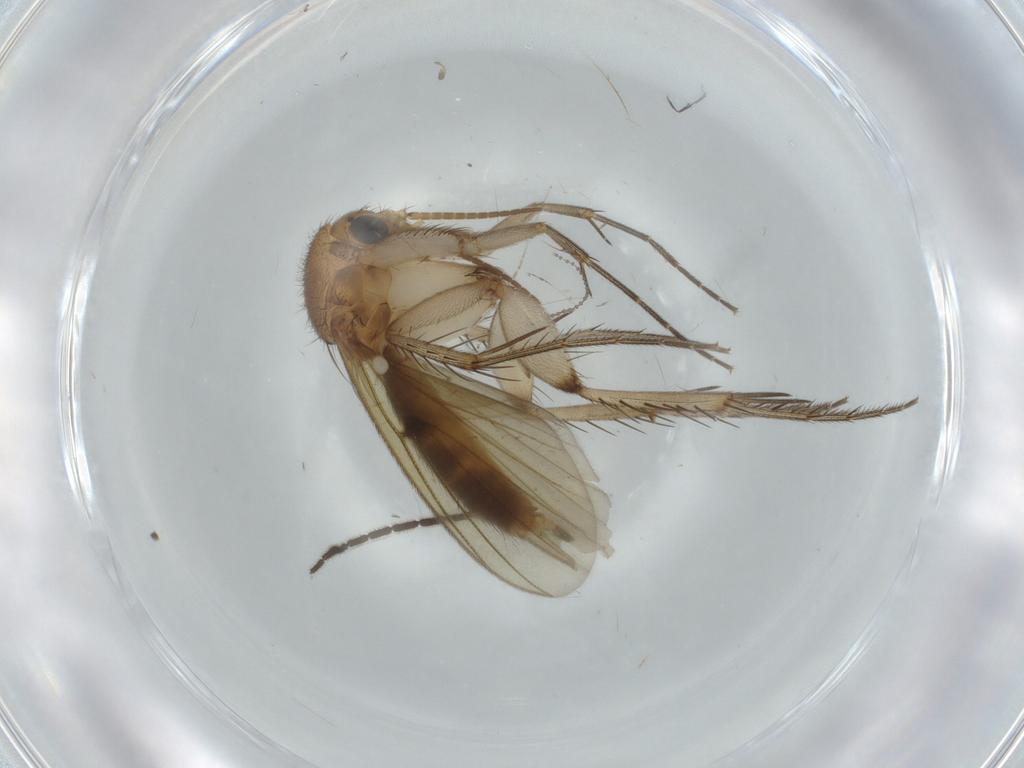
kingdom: Animalia
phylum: Arthropoda
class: Insecta
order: Diptera
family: Mycetophilidae
